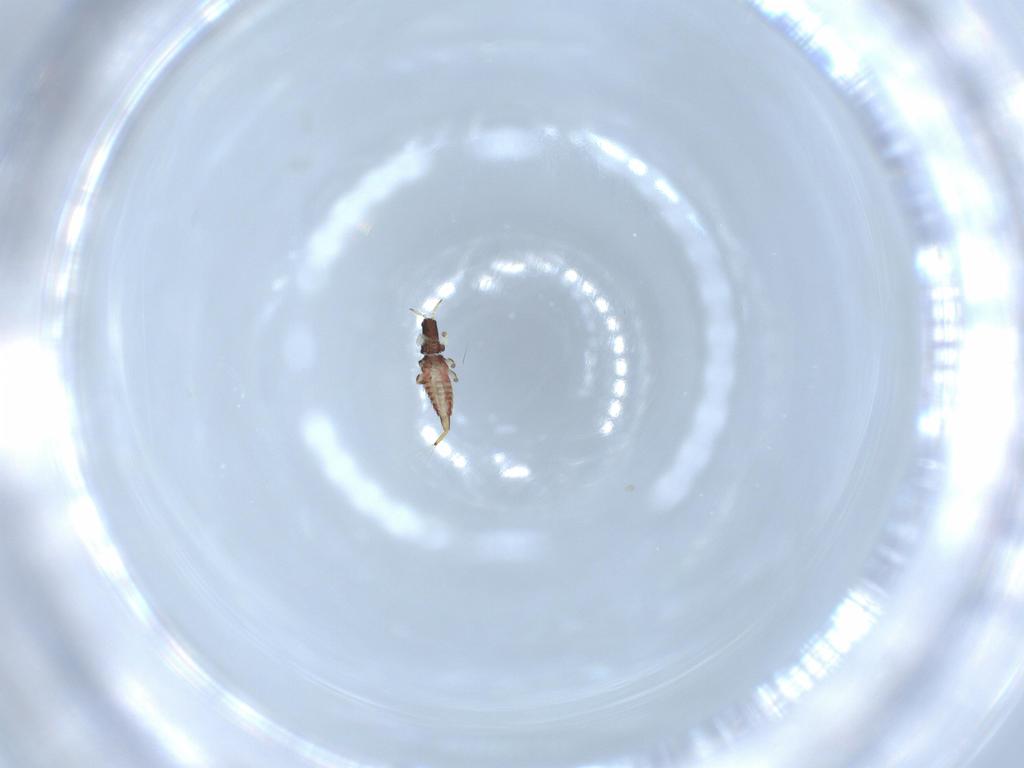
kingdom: Animalia
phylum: Arthropoda
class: Insecta
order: Thysanoptera
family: Phlaeothripidae
